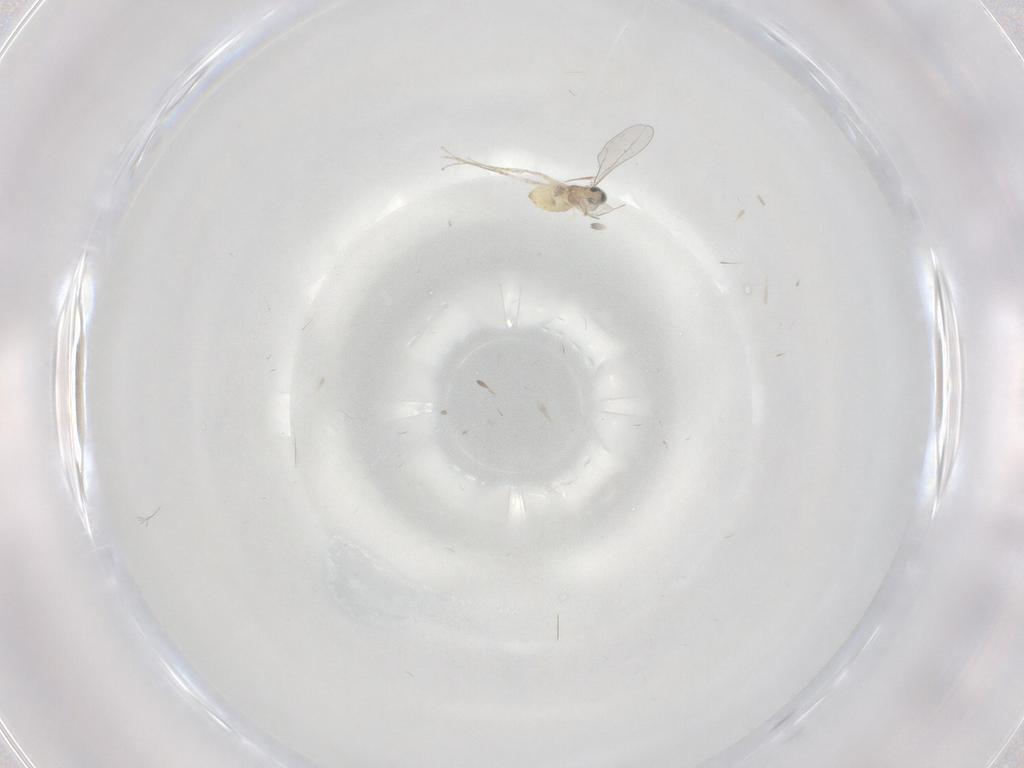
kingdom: Animalia
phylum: Arthropoda
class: Insecta
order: Diptera
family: Cecidomyiidae
